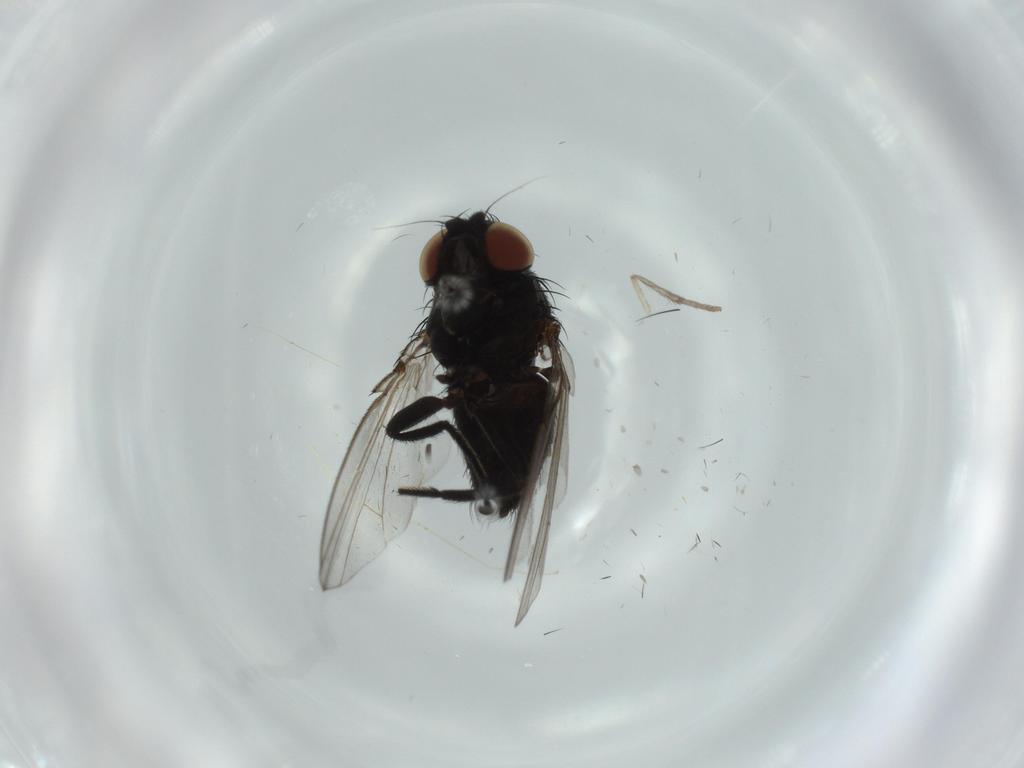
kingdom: Animalia
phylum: Arthropoda
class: Insecta
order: Diptera
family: Milichiidae
